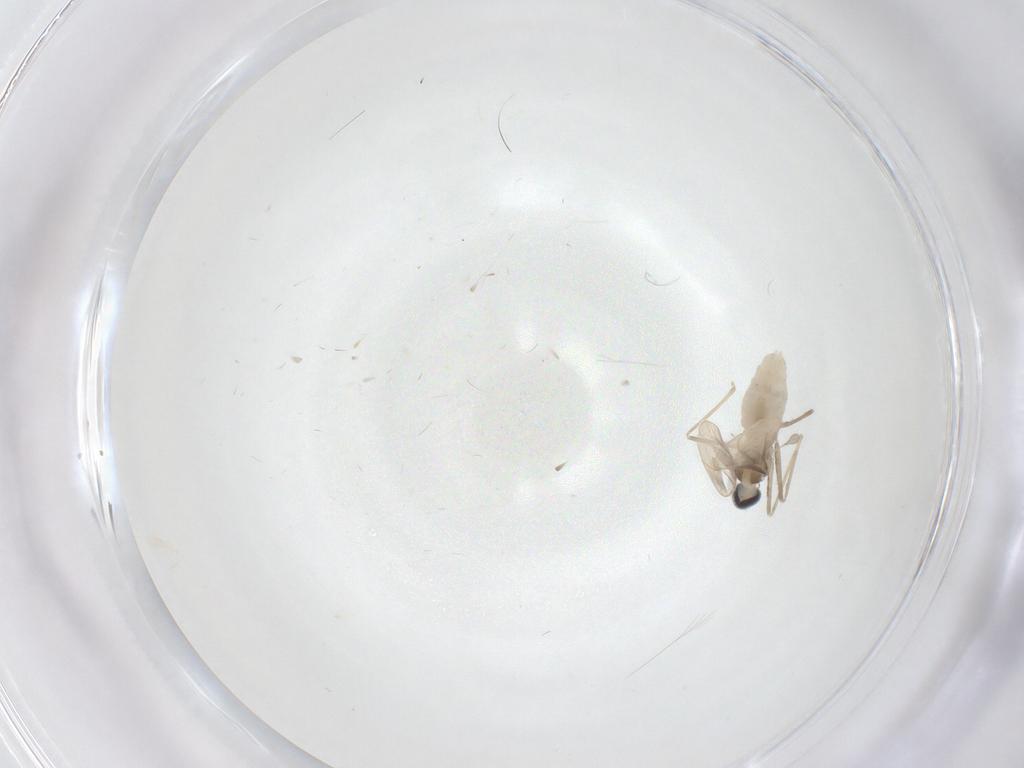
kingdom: Animalia
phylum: Arthropoda
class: Insecta
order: Diptera
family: Cecidomyiidae
